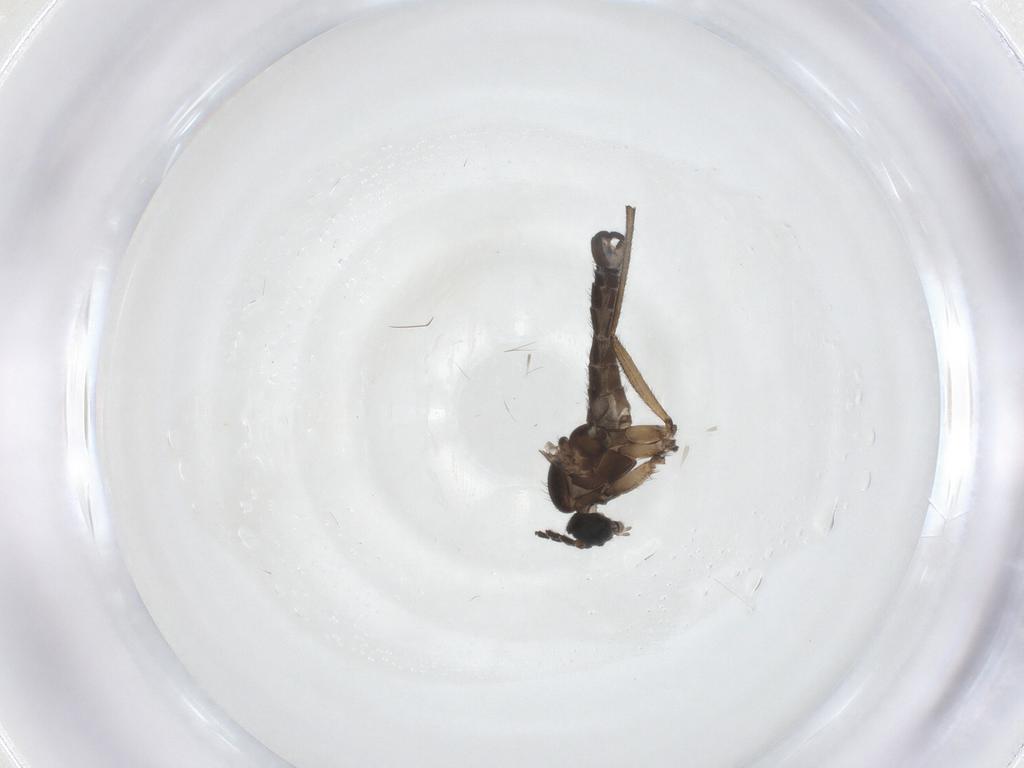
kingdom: Animalia
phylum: Arthropoda
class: Insecta
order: Diptera
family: Sciaridae
